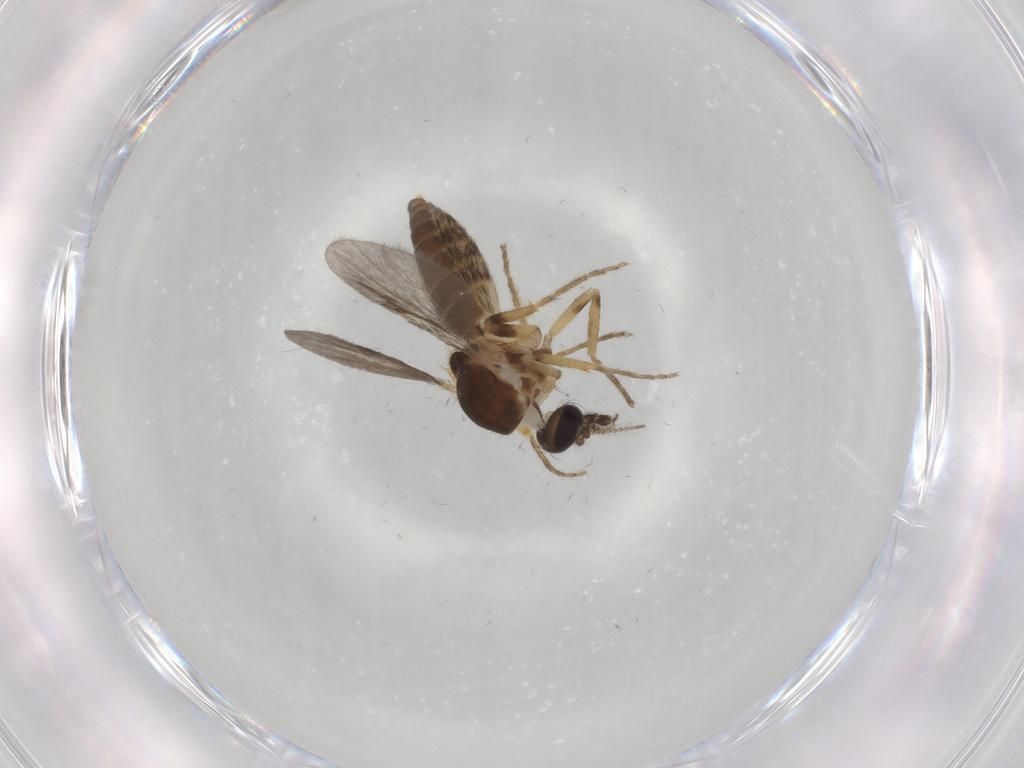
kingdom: Animalia
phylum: Arthropoda
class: Insecta
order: Diptera
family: Ceratopogonidae
